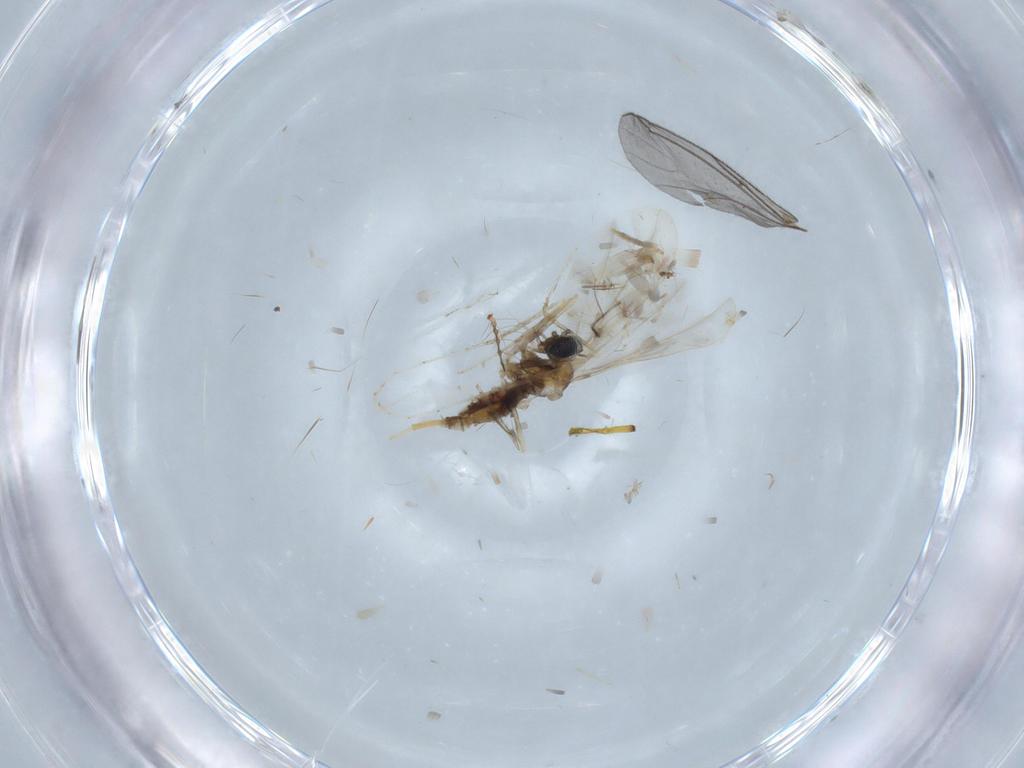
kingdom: Animalia
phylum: Arthropoda
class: Insecta
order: Diptera
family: Cecidomyiidae
